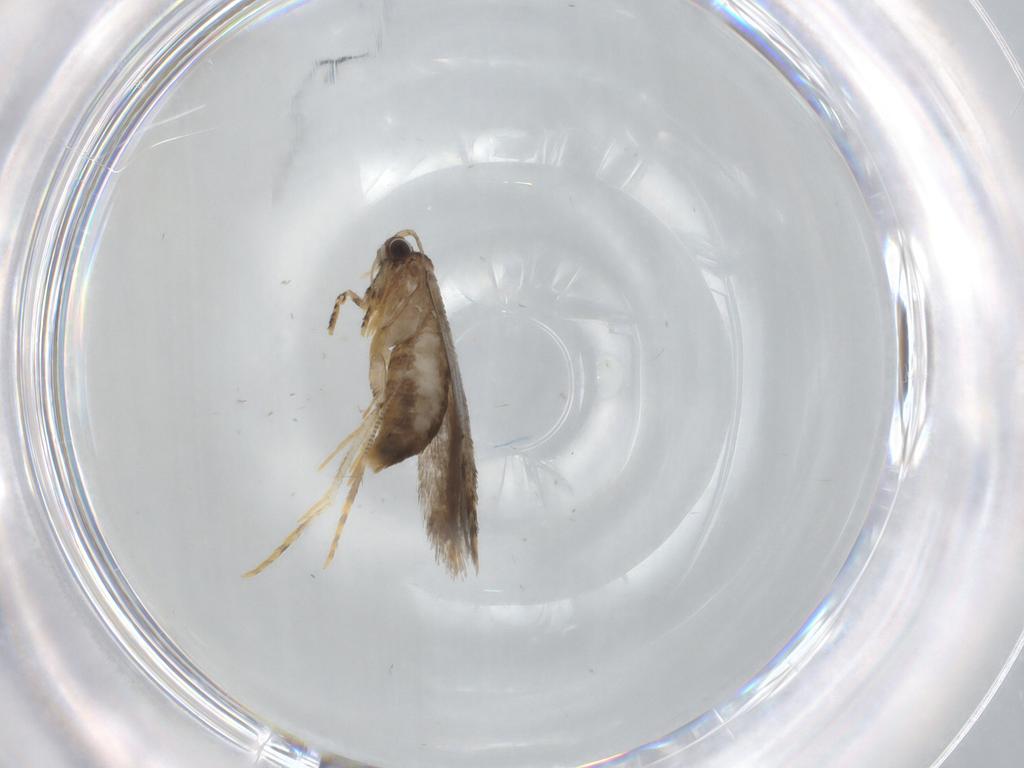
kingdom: Animalia
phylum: Arthropoda
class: Insecta
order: Lepidoptera
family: Tineidae
